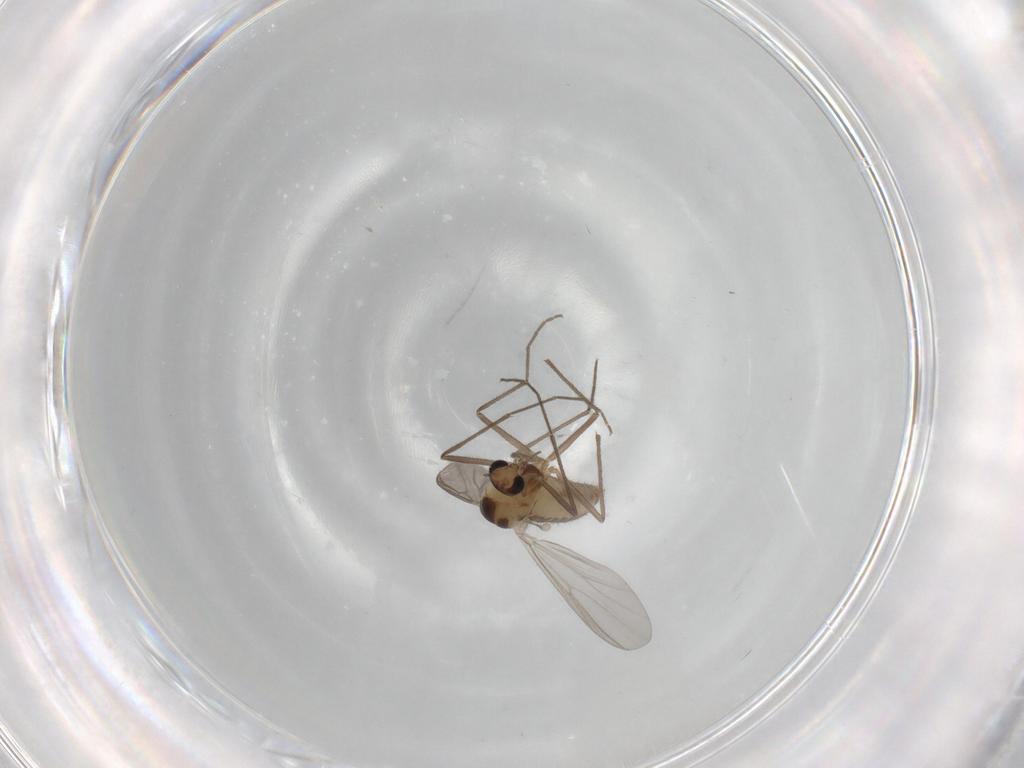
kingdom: Animalia
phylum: Arthropoda
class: Insecta
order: Diptera
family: Chironomidae
